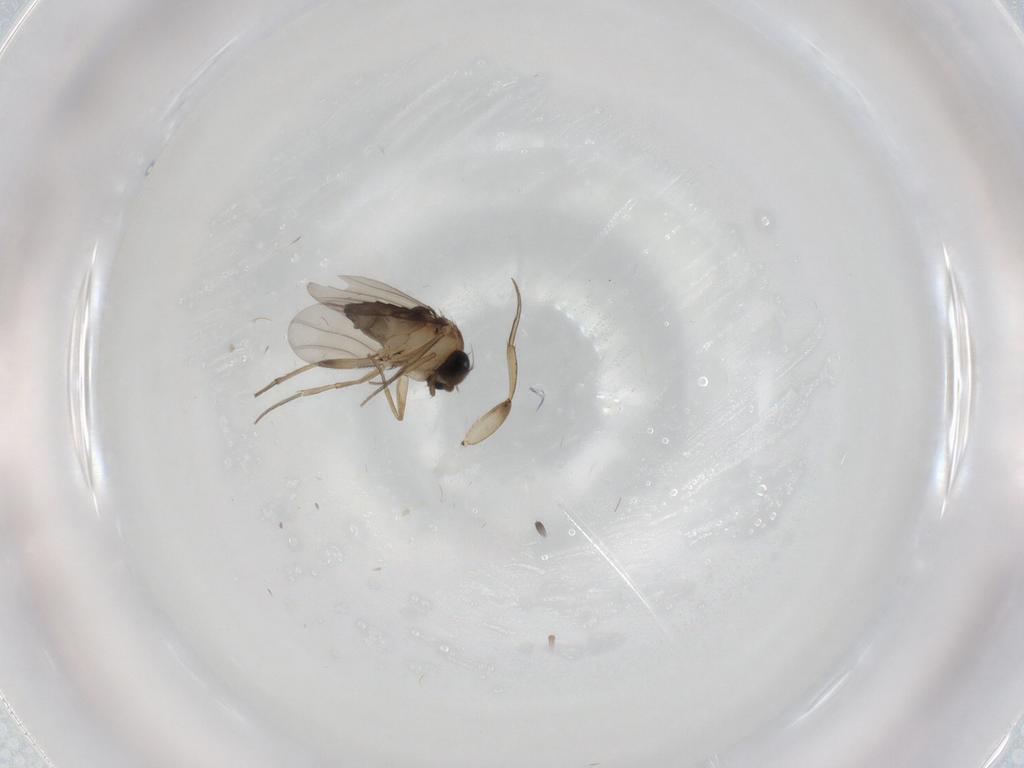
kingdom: Animalia
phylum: Arthropoda
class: Insecta
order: Diptera
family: Phoridae
